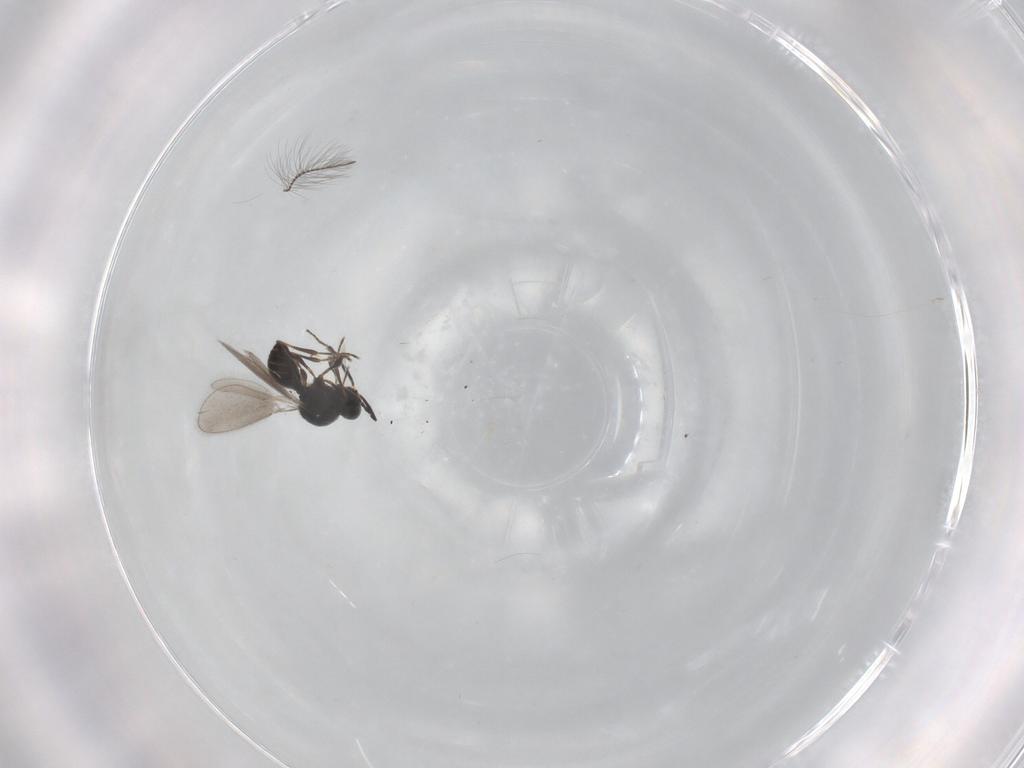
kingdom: Animalia
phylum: Arthropoda
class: Insecta
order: Hymenoptera
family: Platygastridae
